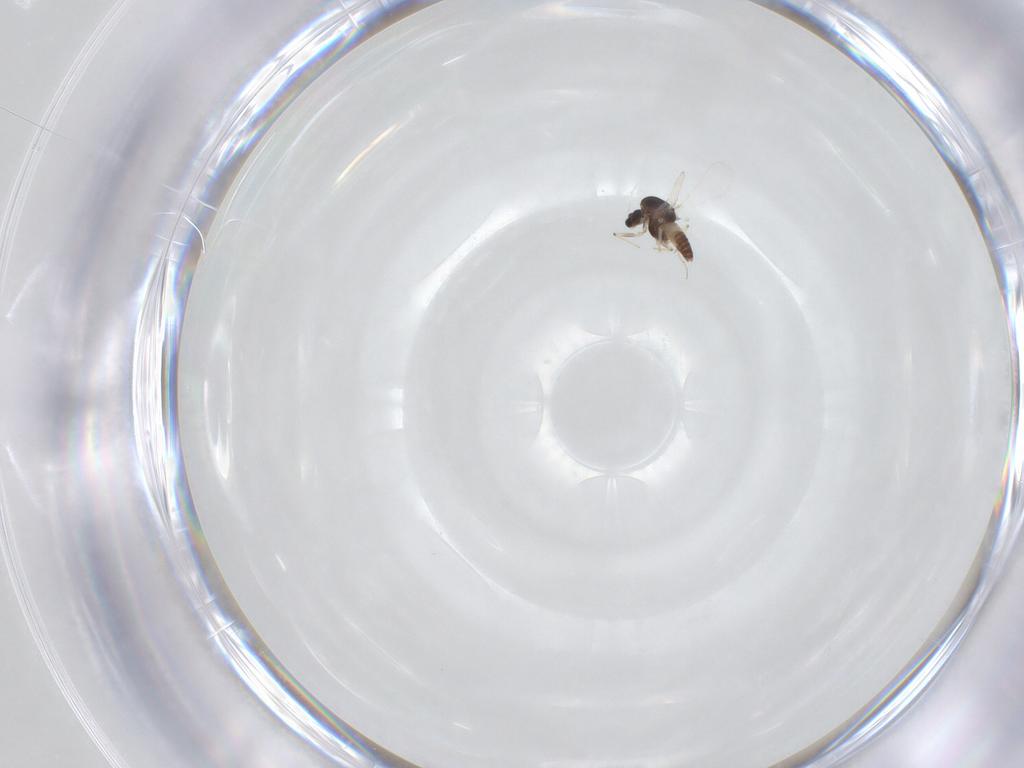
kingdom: Animalia
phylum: Arthropoda
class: Insecta
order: Diptera
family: Chironomidae
